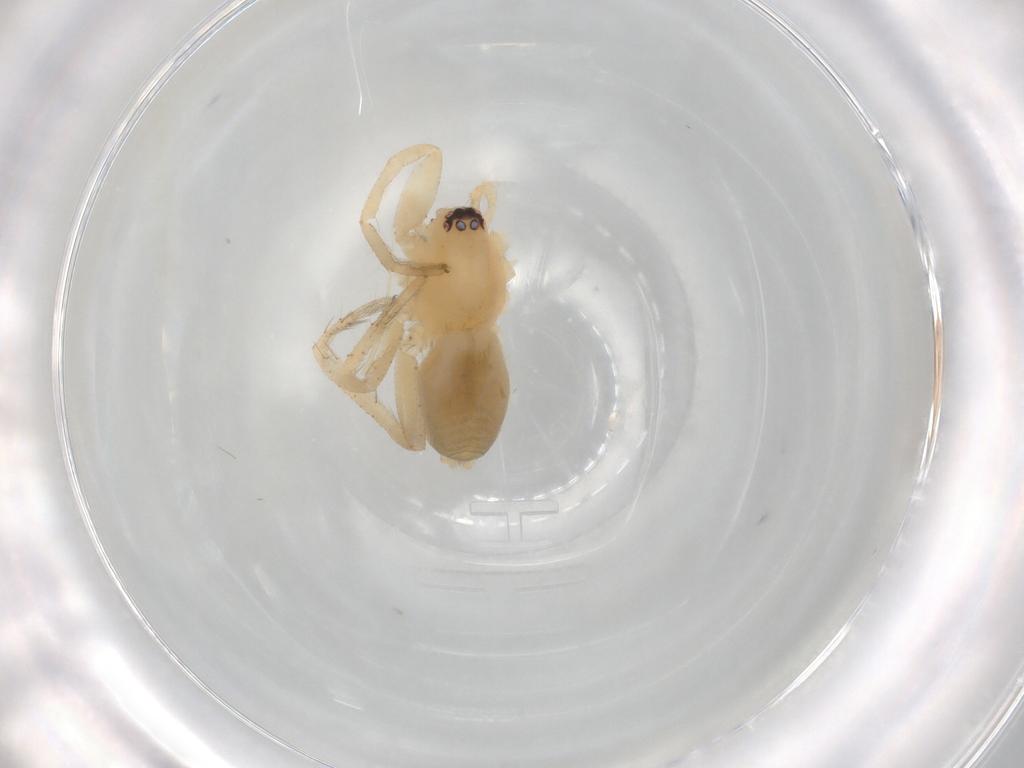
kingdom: Animalia
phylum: Arthropoda
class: Arachnida
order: Araneae
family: Gnaphosidae
